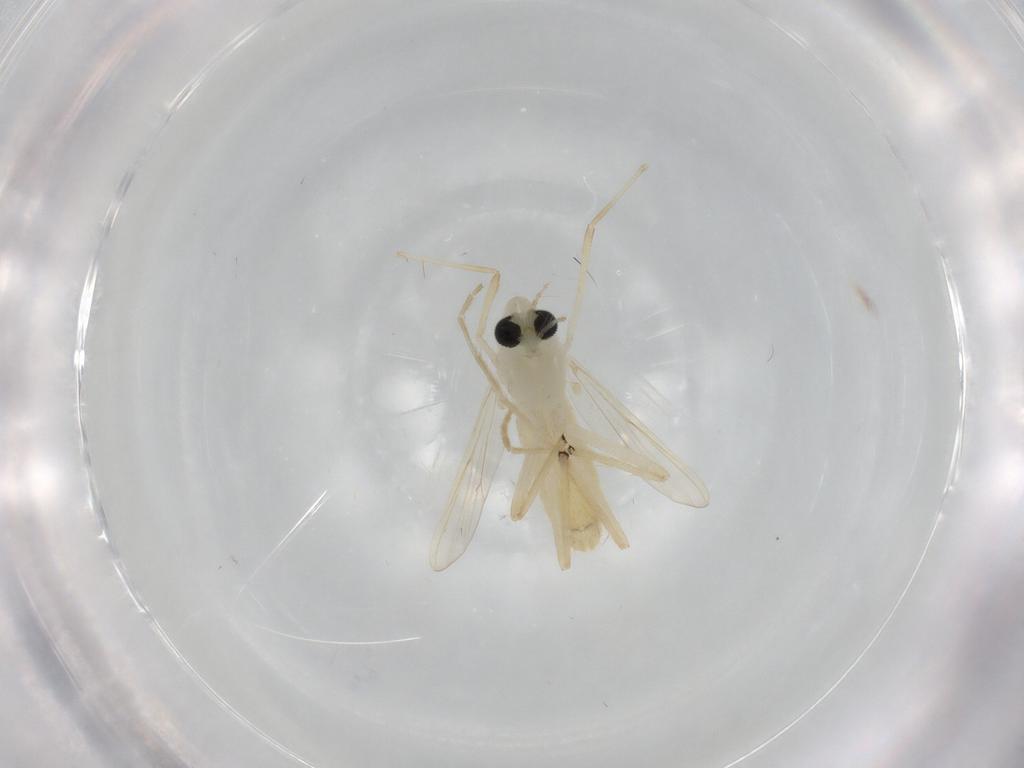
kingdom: Animalia
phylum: Arthropoda
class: Insecta
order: Diptera
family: Chironomidae
